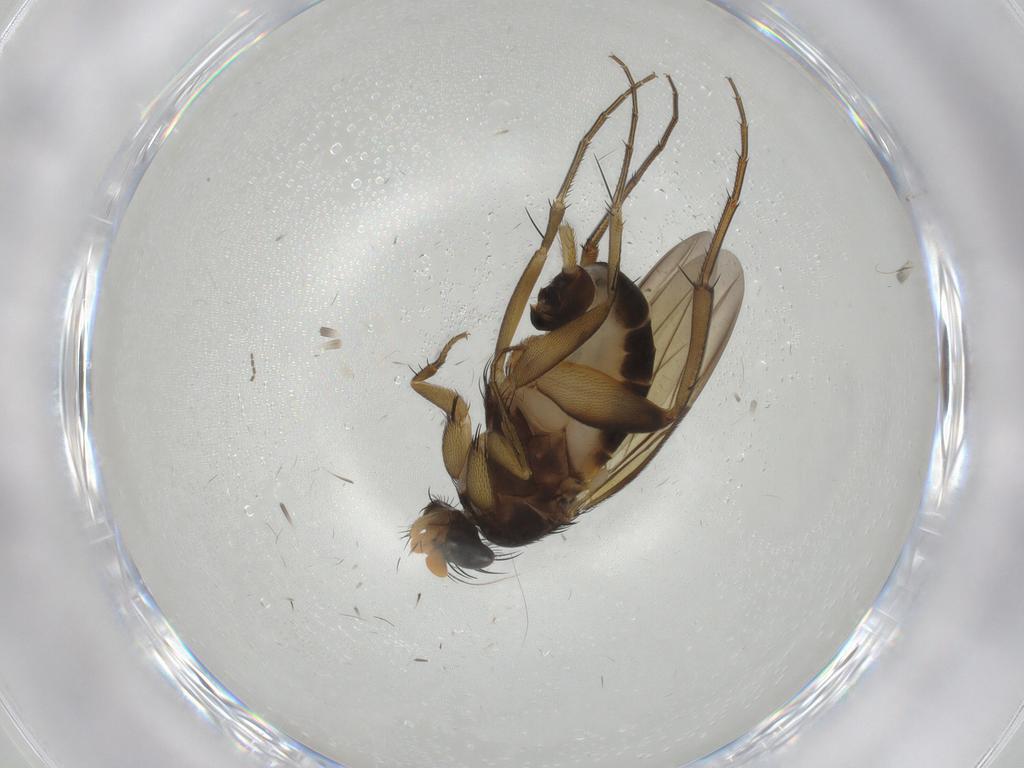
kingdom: Animalia
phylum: Arthropoda
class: Insecta
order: Diptera
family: Phoridae
